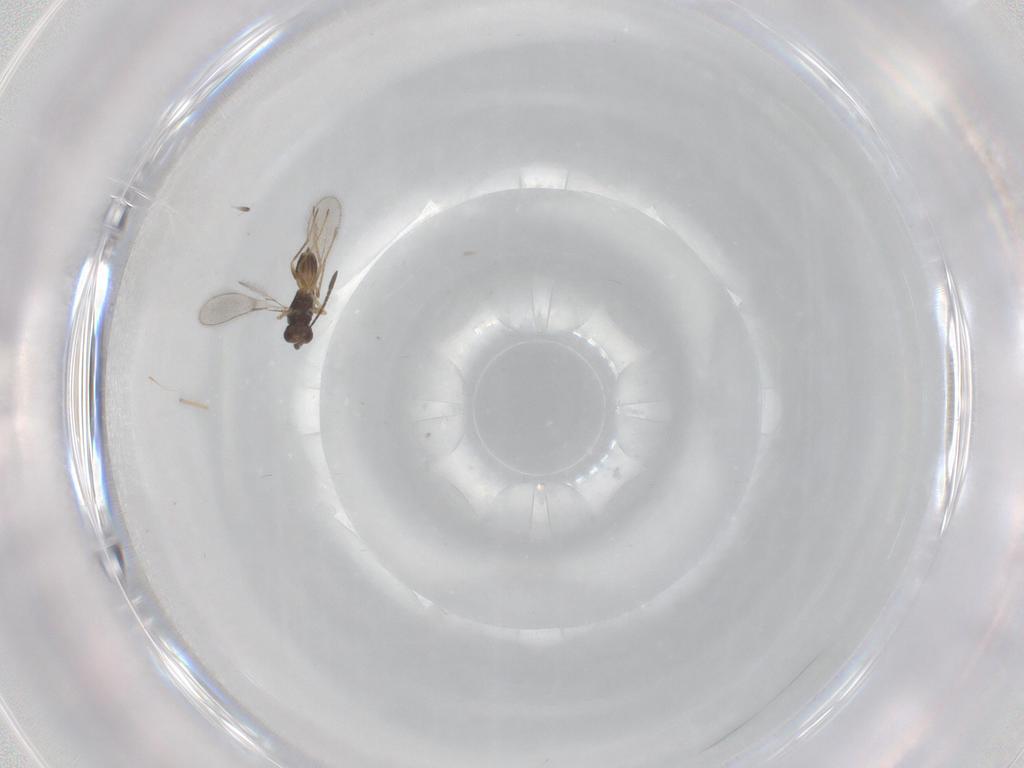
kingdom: Animalia
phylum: Arthropoda
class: Insecta
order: Hymenoptera
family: Mymaridae
